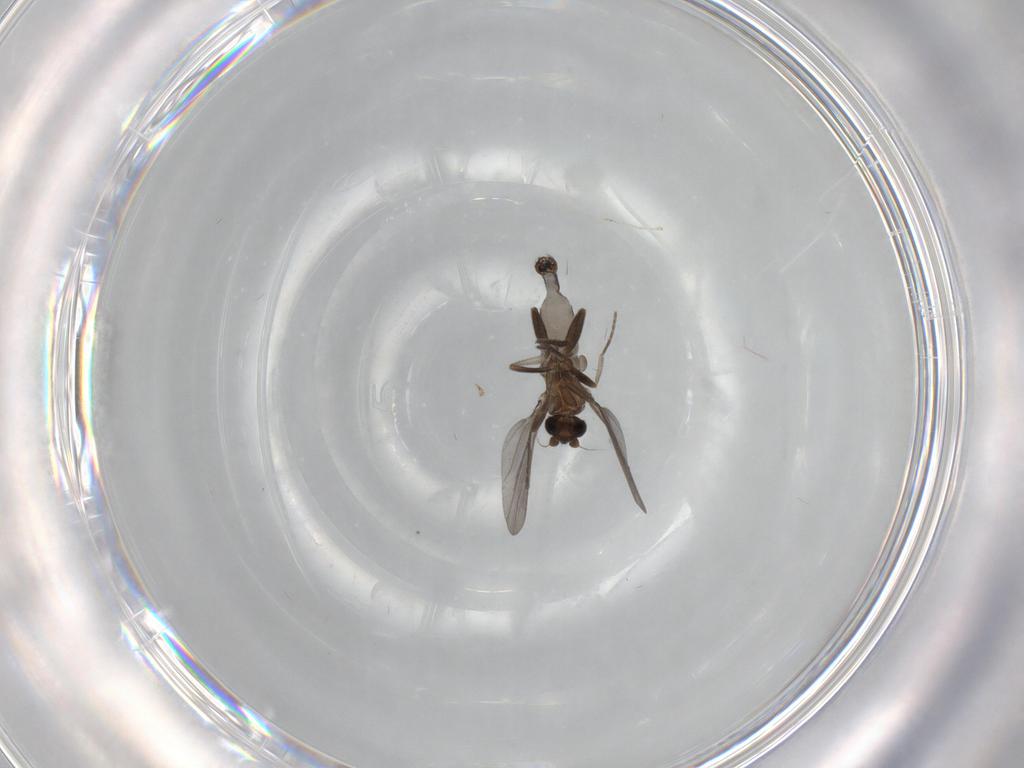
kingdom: Animalia
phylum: Arthropoda
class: Insecta
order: Diptera
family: Phoridae
